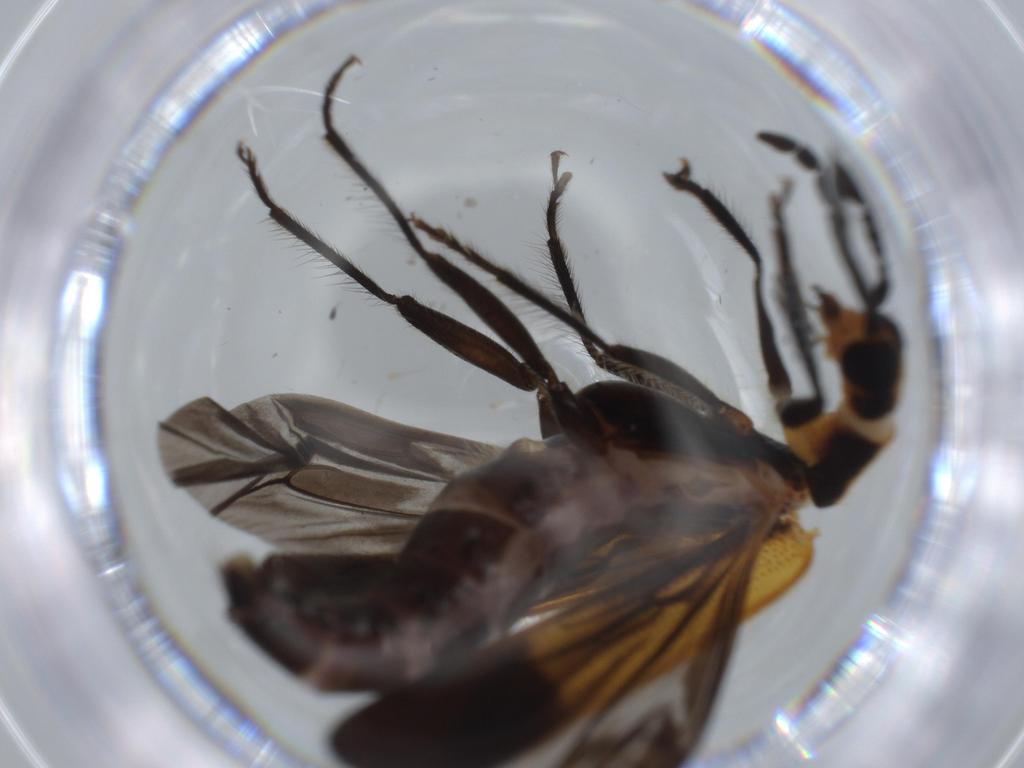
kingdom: Animalia
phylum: Arthropoda
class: Insecta
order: Coleoptera
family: Cleridae
